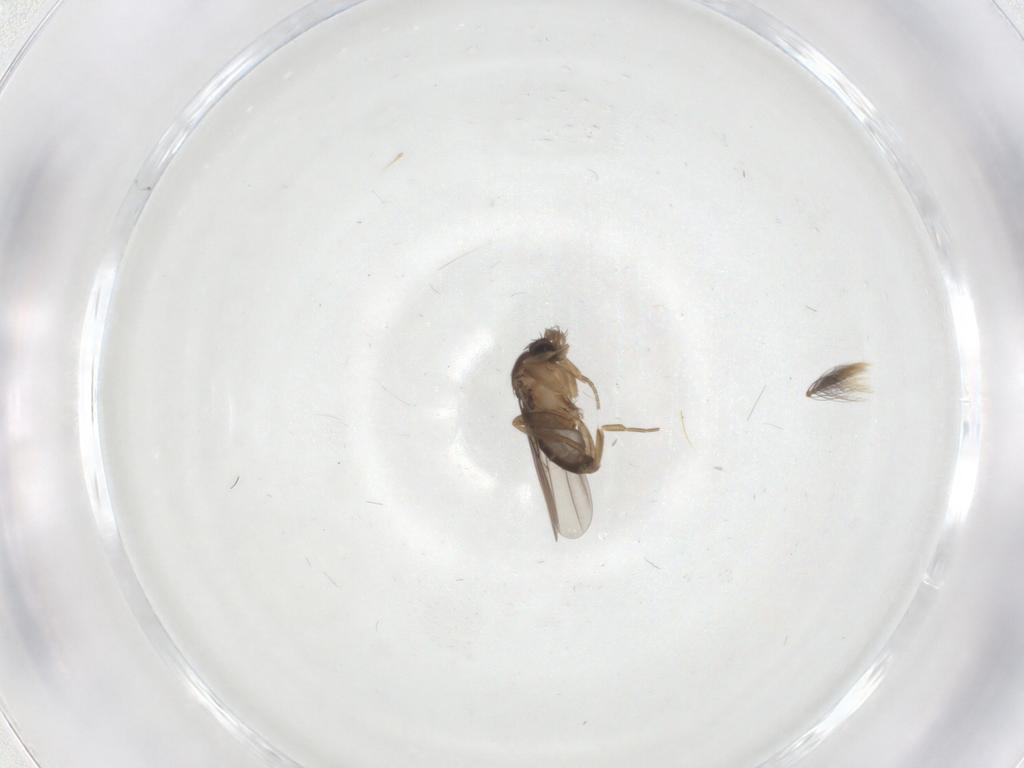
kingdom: Animalia
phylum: Arthropoda
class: Insecta
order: Diptera
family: Cecidomyiidae
